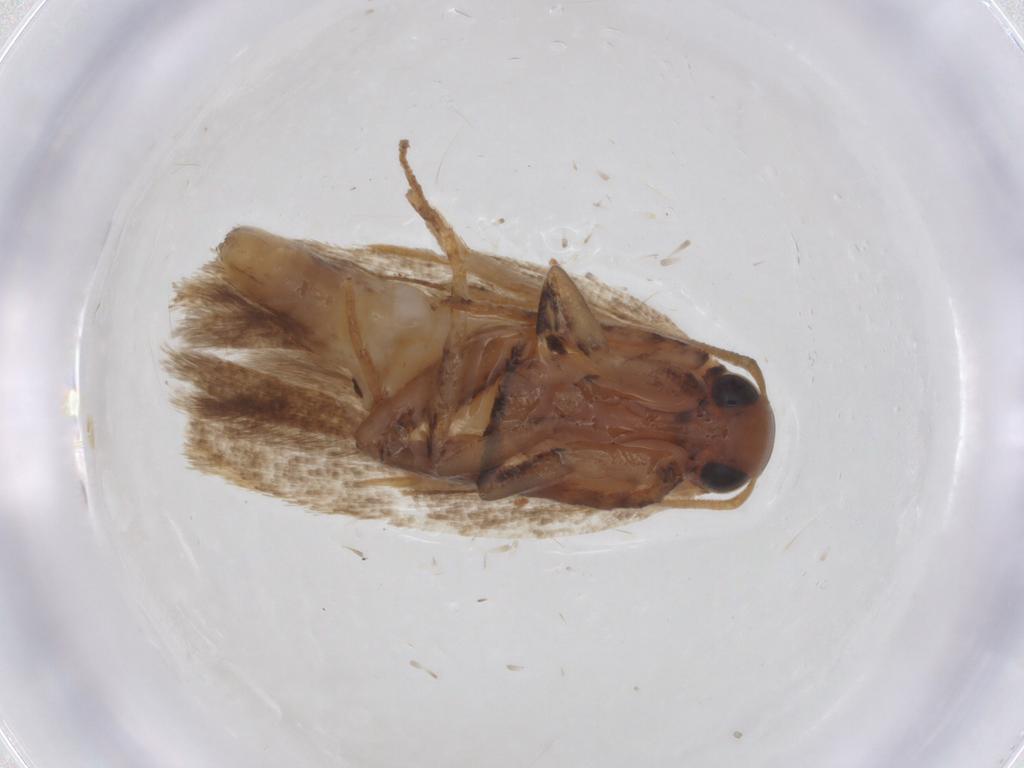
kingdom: Animalia
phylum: Arthropoda
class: Insecta
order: Lepidoptera
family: Gelechiidae
